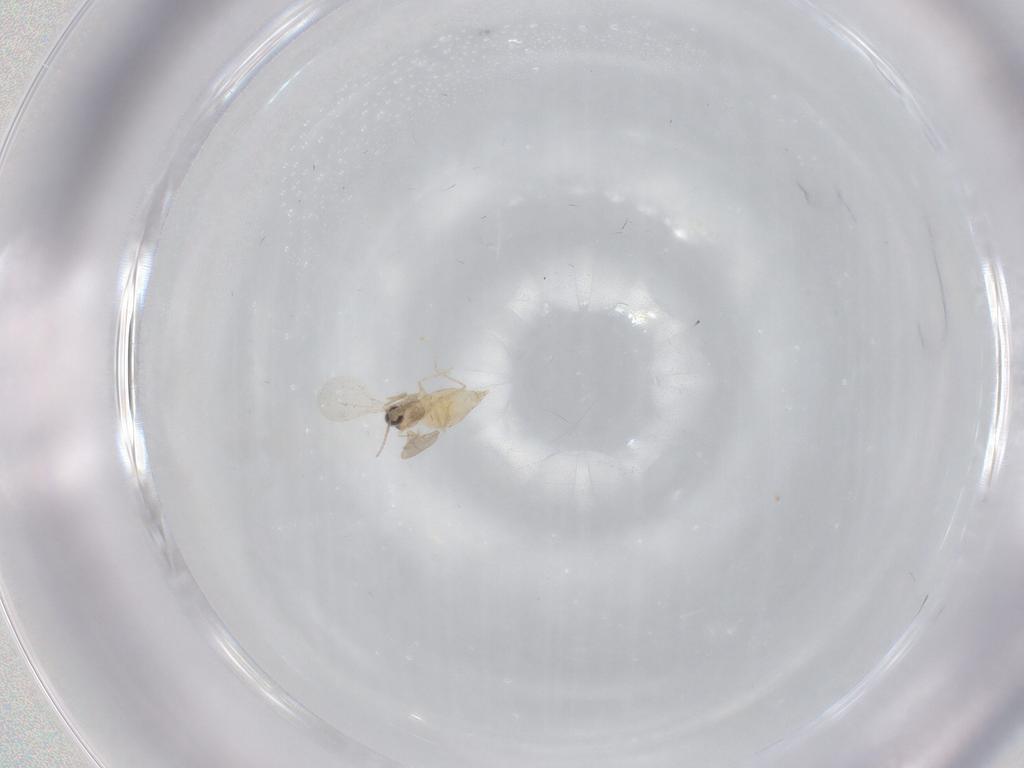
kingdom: Animalia
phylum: Arthropoda
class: Insecta
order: Diptera
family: Cecidomyiidae
